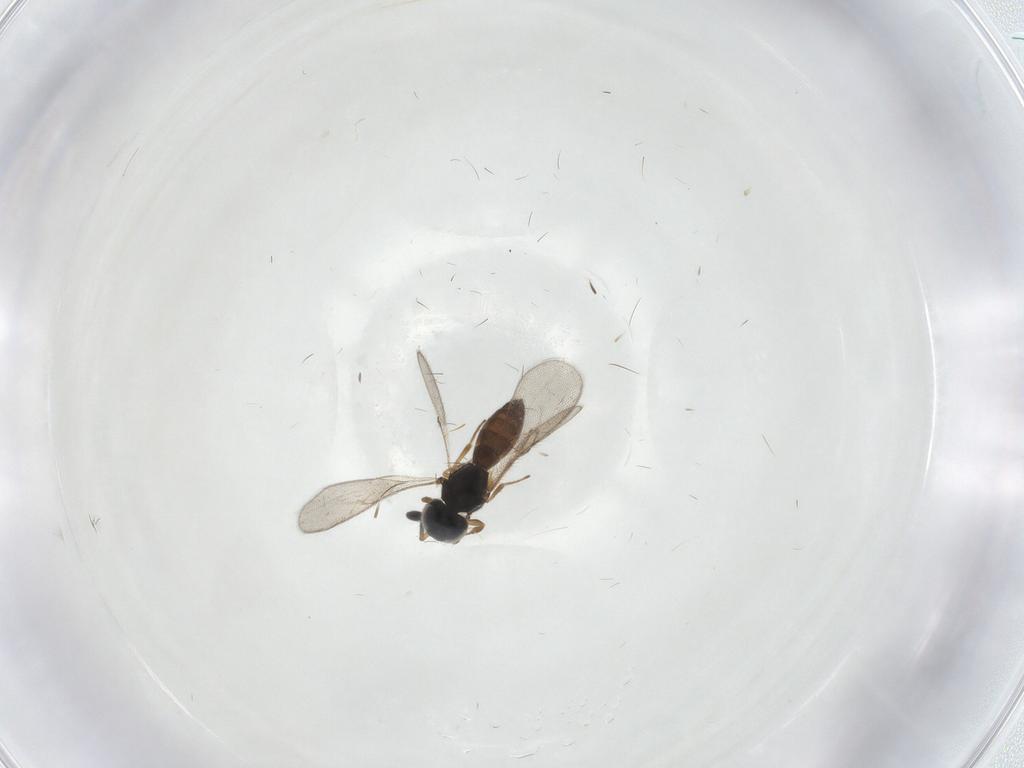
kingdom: Animalia
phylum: Arthropoda
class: Insecta
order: Hymenoptera
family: Scelionidae
